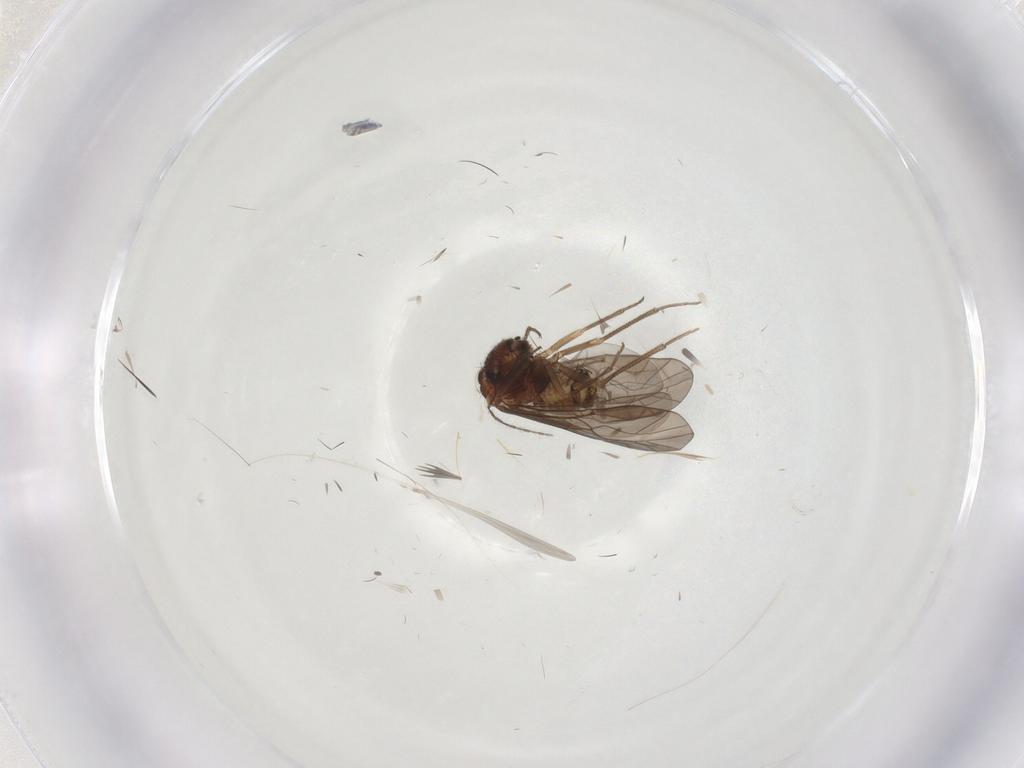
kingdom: Animalia
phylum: Arthropoda
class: Insecta
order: Psocodea
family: Lachesillidae
